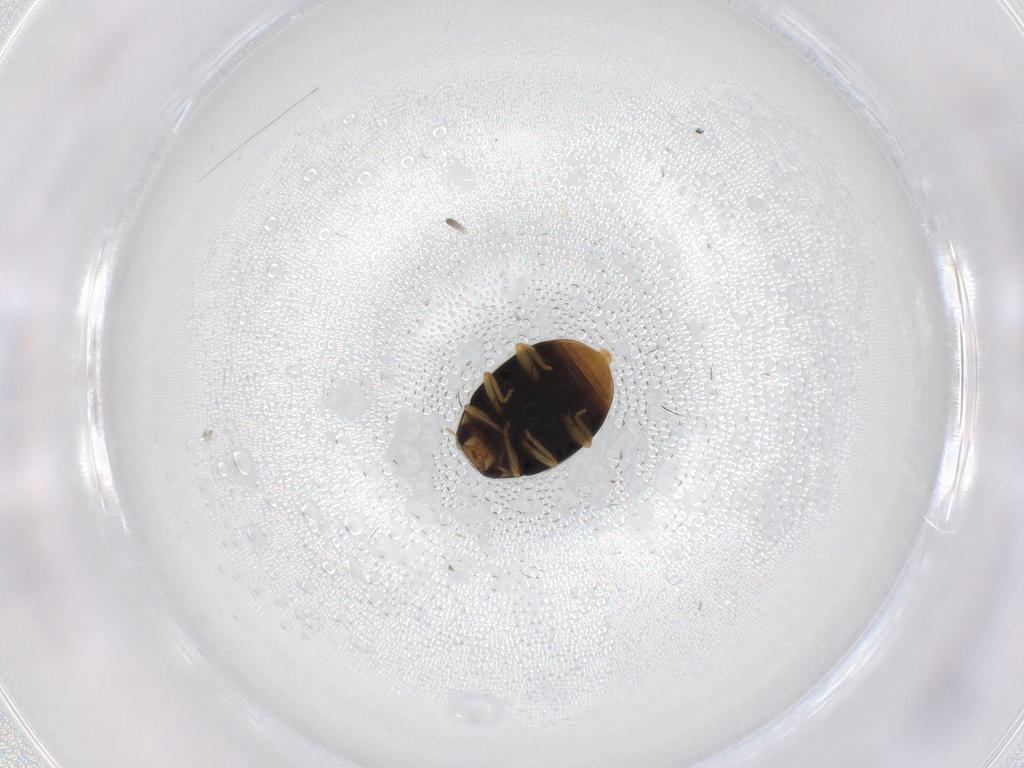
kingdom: Animalia
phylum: Arthropoda
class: Insecta
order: Coleoptera
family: Coccinellidae
